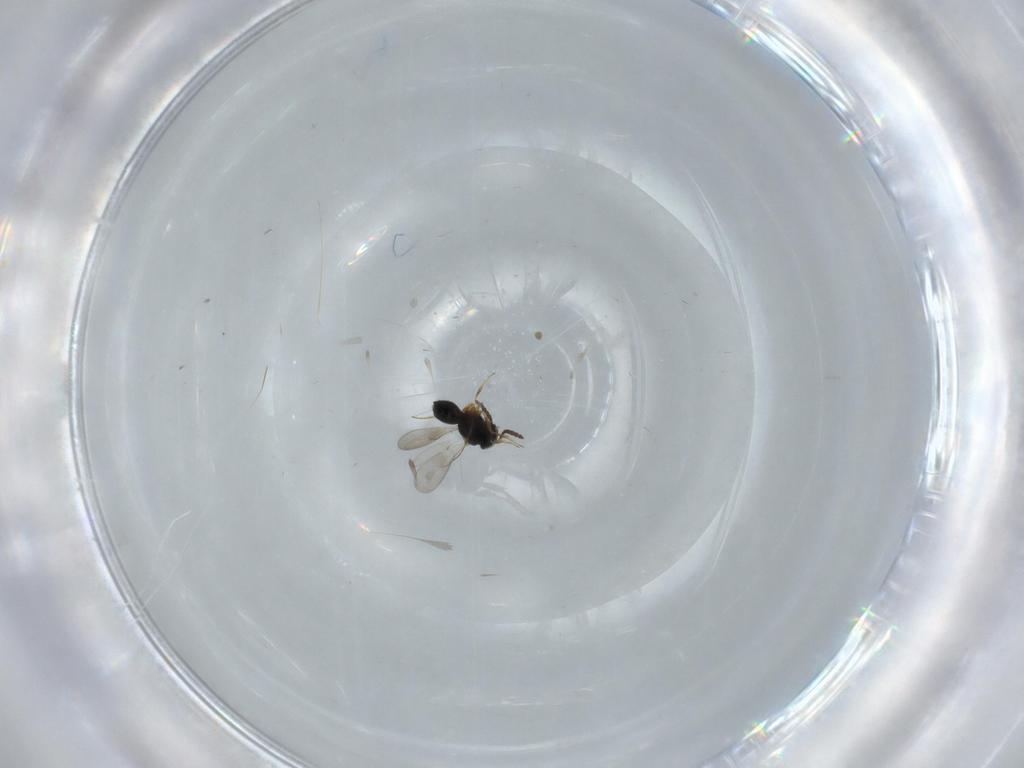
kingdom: Animalia
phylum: Arthropoda
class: Insecta
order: Hymenoptera
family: Scelionidae
